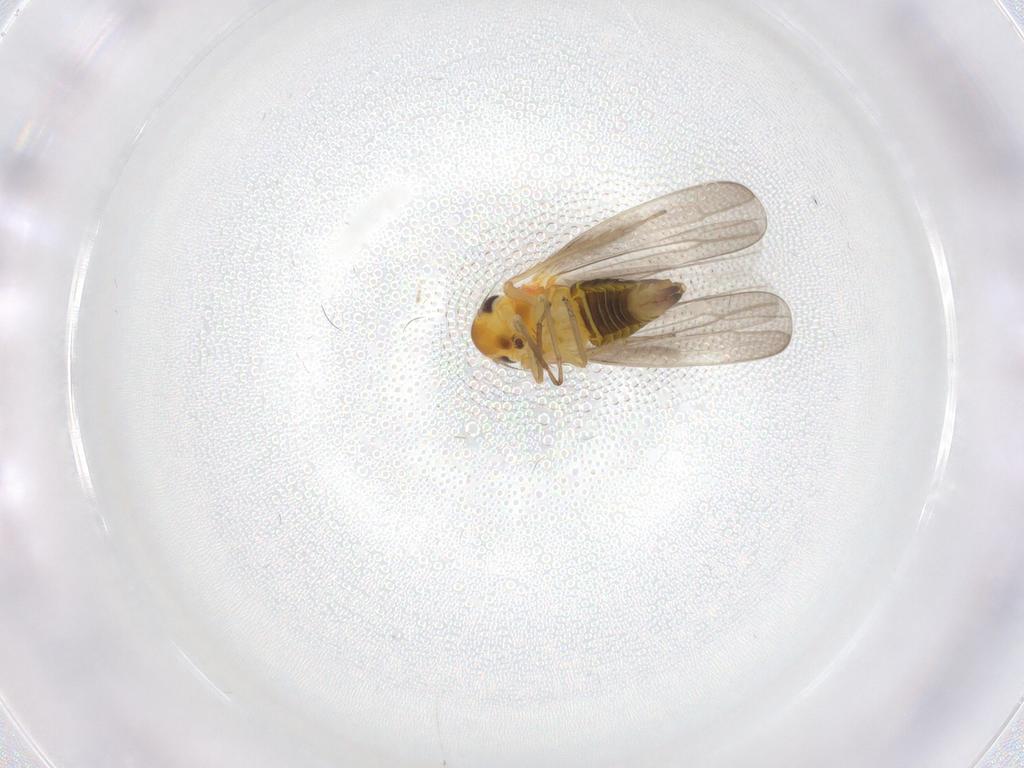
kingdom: Animalia
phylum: Arthropoda
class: Insecta
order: Hemiptera
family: Cicadellidae
